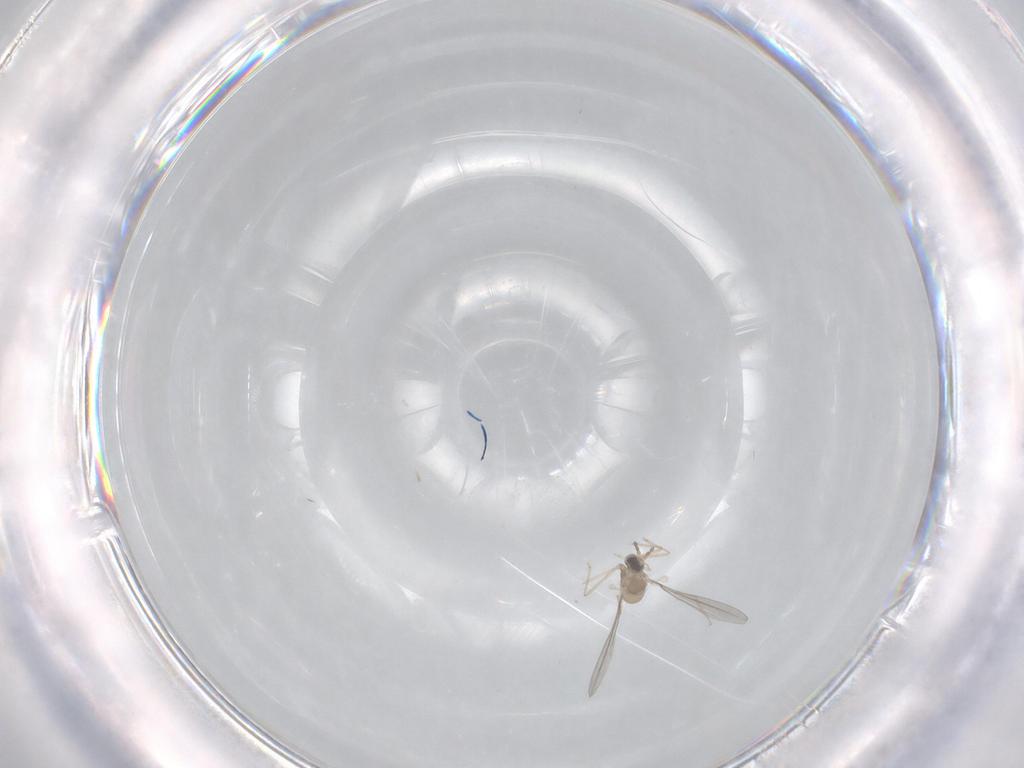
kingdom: Animalia
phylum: Arthropoda
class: Insecta
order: Diptera
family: Cecidomyiidae
